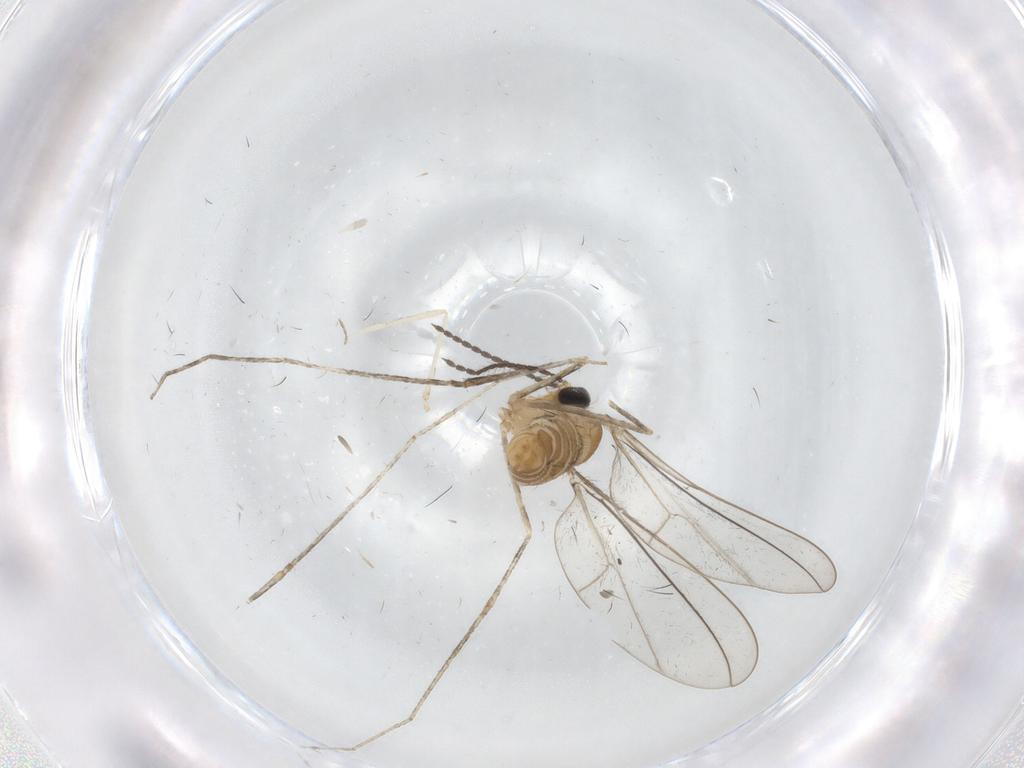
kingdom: Animalia
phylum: Arthropoda
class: Insecta
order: Diptera
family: Cecidomyiidae
